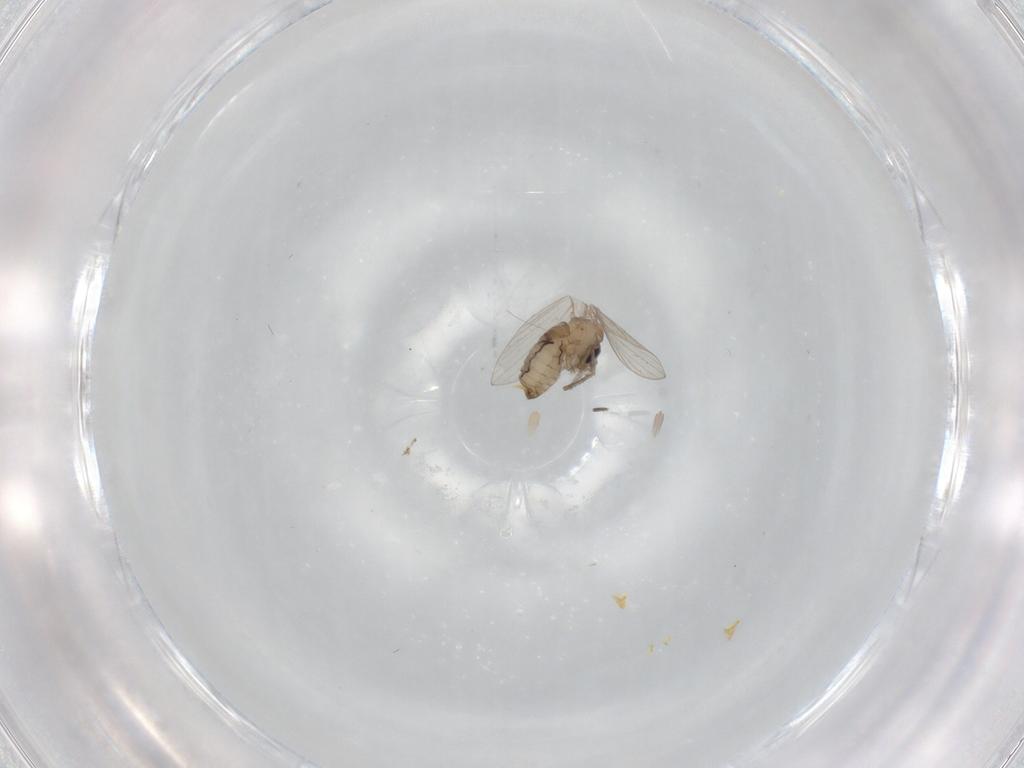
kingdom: Animalia
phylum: Arthropoda
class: Insecta
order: Diptera
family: Psychodidae
